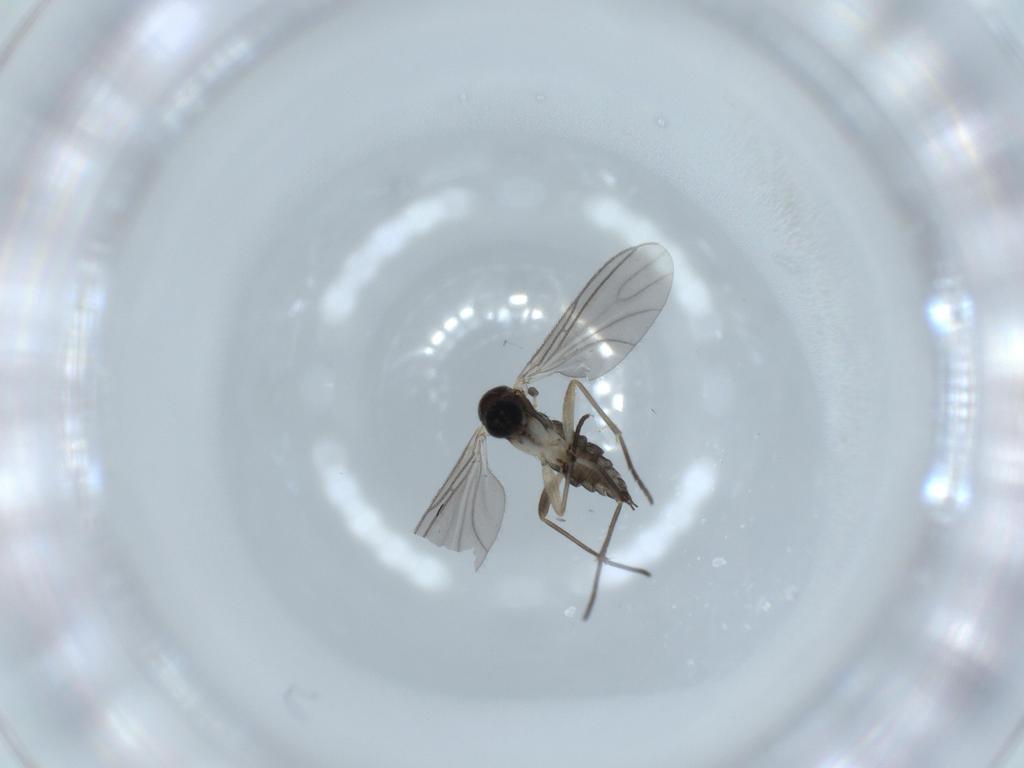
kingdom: Animalia
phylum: Arthropoda
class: Insecta
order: Diptera
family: Sciaridae
